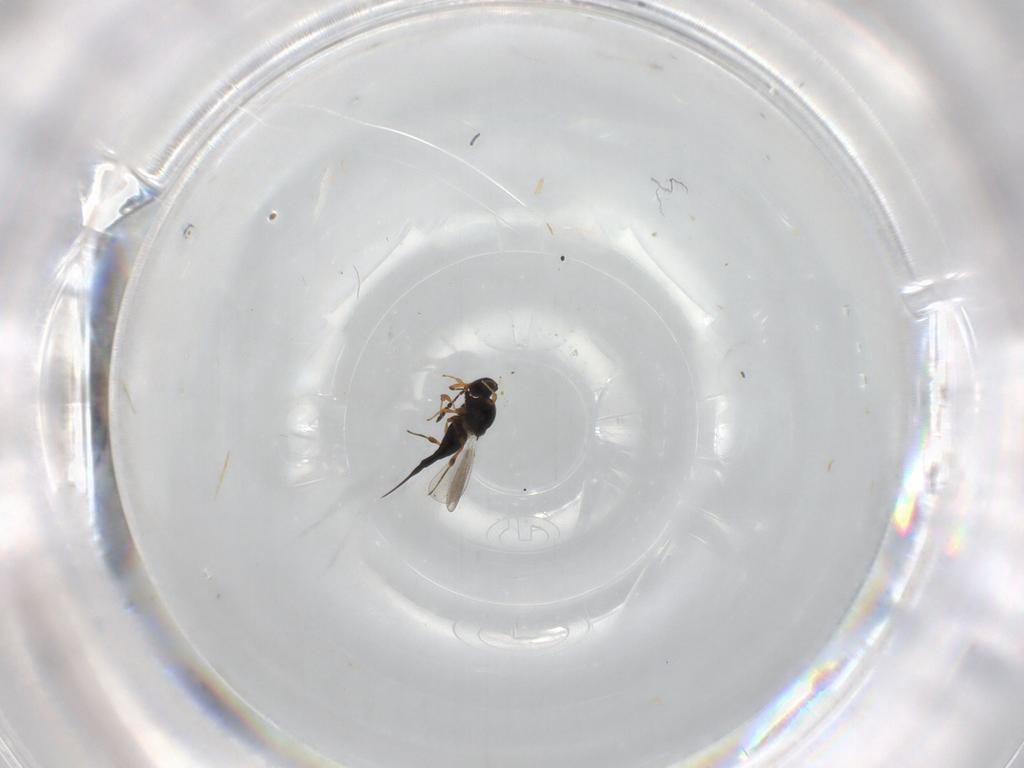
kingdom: Animalia
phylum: Arthropoda
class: Insecta
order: Hymenoptera
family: Platygastridae
